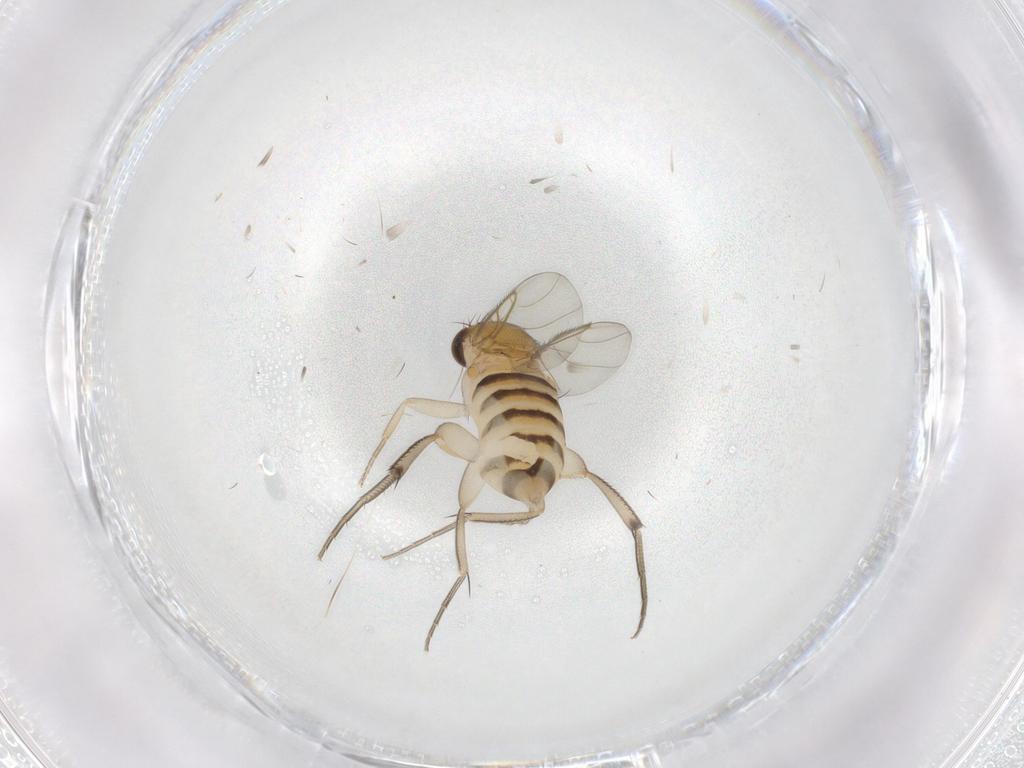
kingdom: Animalia
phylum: Arthropoda
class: Insecta
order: Diptera
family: Phoridae
